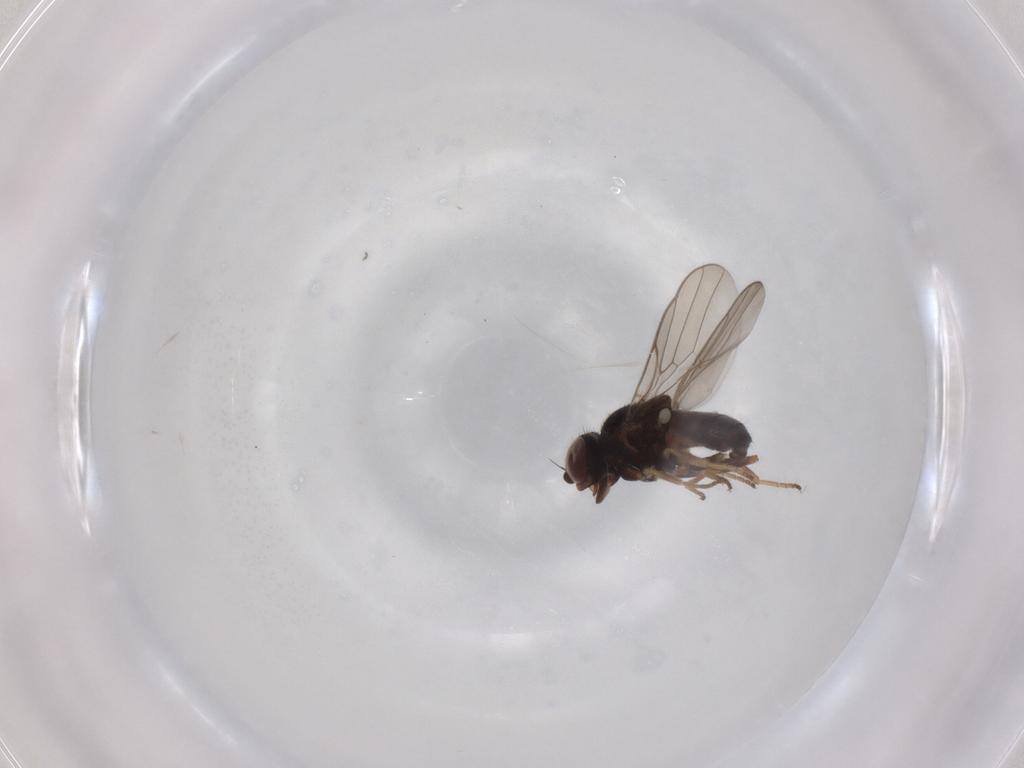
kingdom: Animalia
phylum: Arthropoda
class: Insecta
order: Diptera
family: Chloropidae
